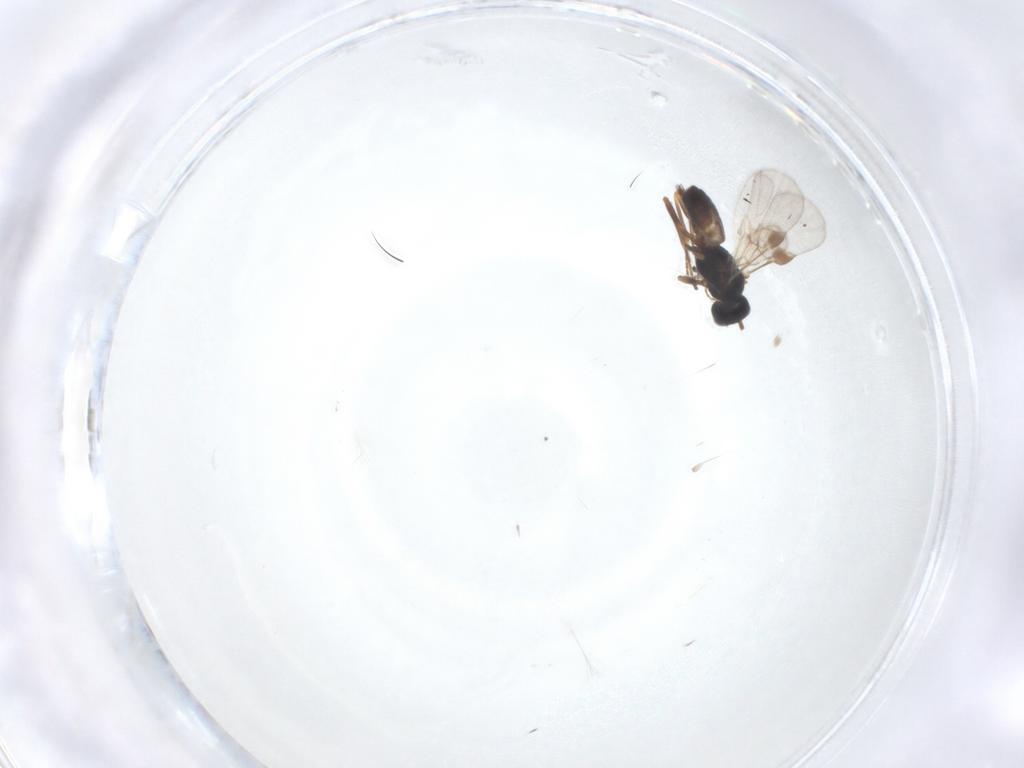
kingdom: Animalia
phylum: Arthropoda
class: Insecta
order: Hymenoptera
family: Braconidae
